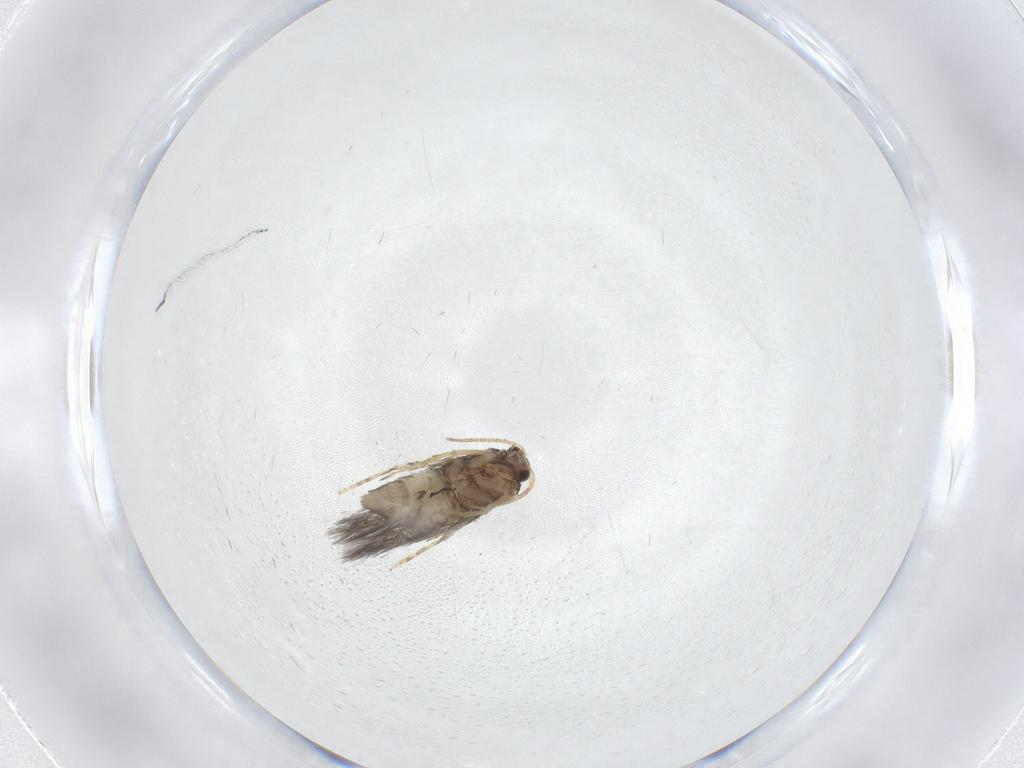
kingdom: Animalia
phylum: Arthropoda
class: Insecta
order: Lepidoptera
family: Nepticulidae
